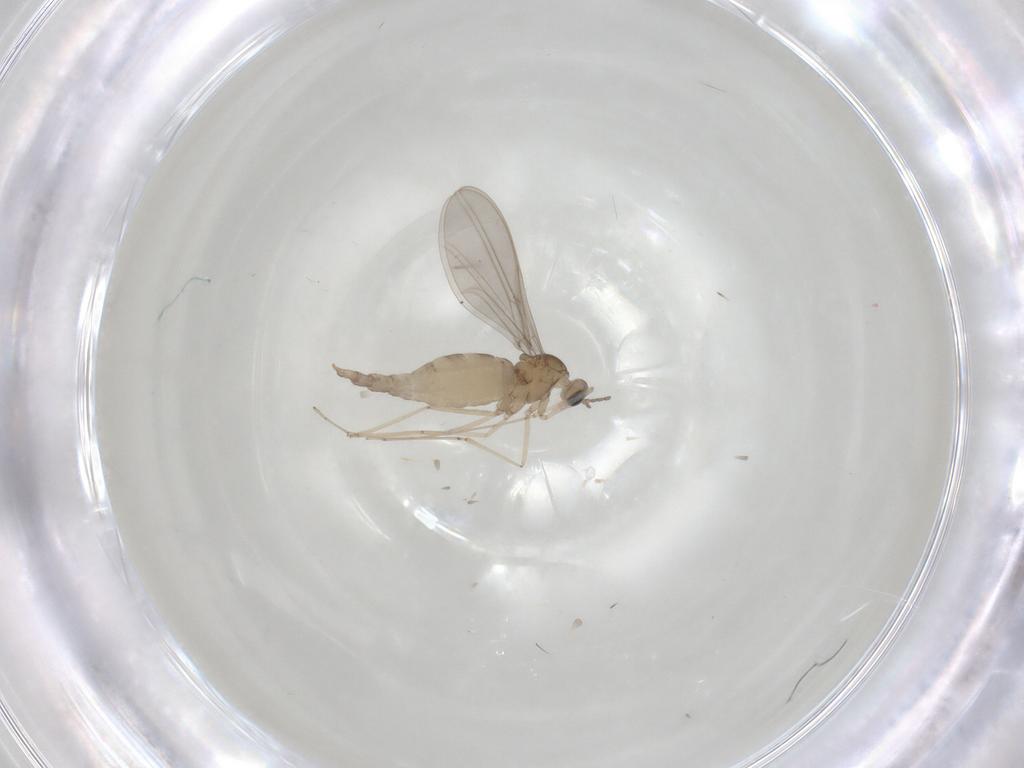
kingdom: Animalia
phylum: Arthropoda
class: Insecta
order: Diptera
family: Cecidomyiidae
